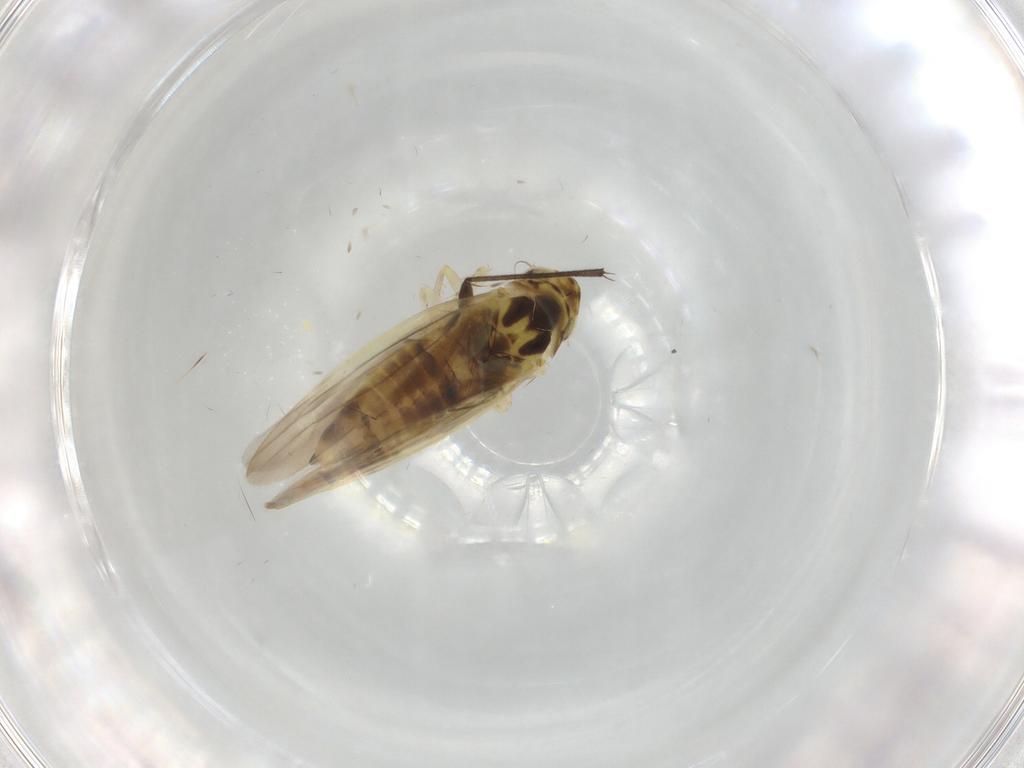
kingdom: Animalia
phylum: Arthropoda
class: Insecta
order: Hemiptera
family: Cicadellidae
